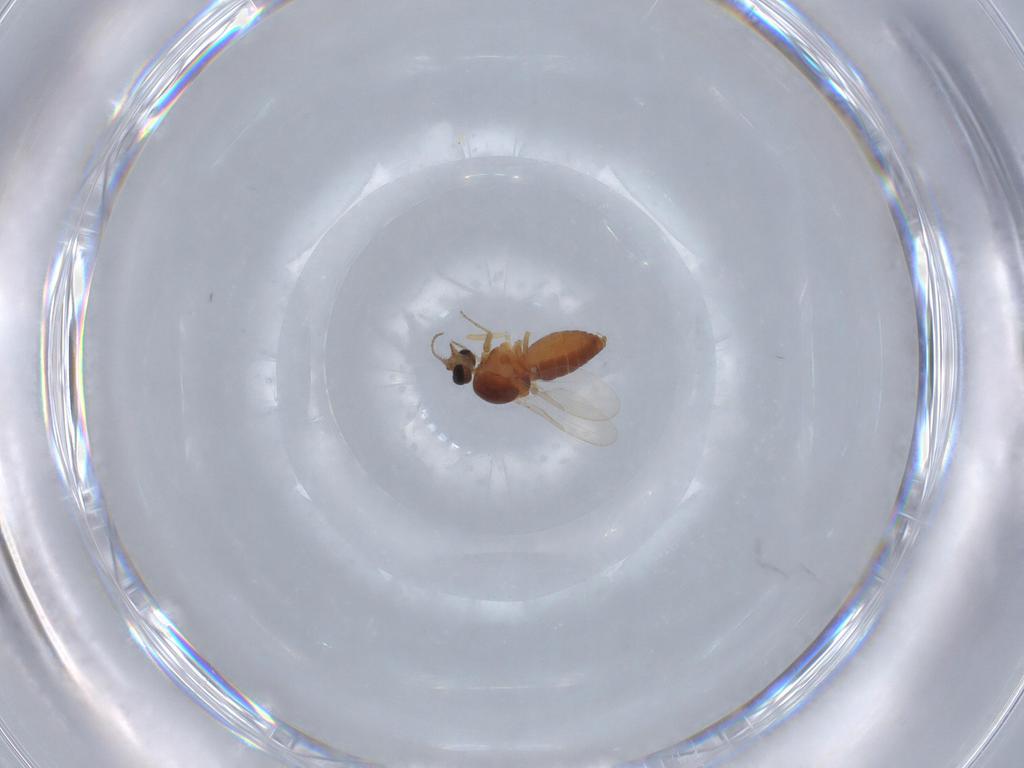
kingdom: Animalia
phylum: Arthropoda
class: Insecta
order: Diptera
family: Ceratopogonidae
